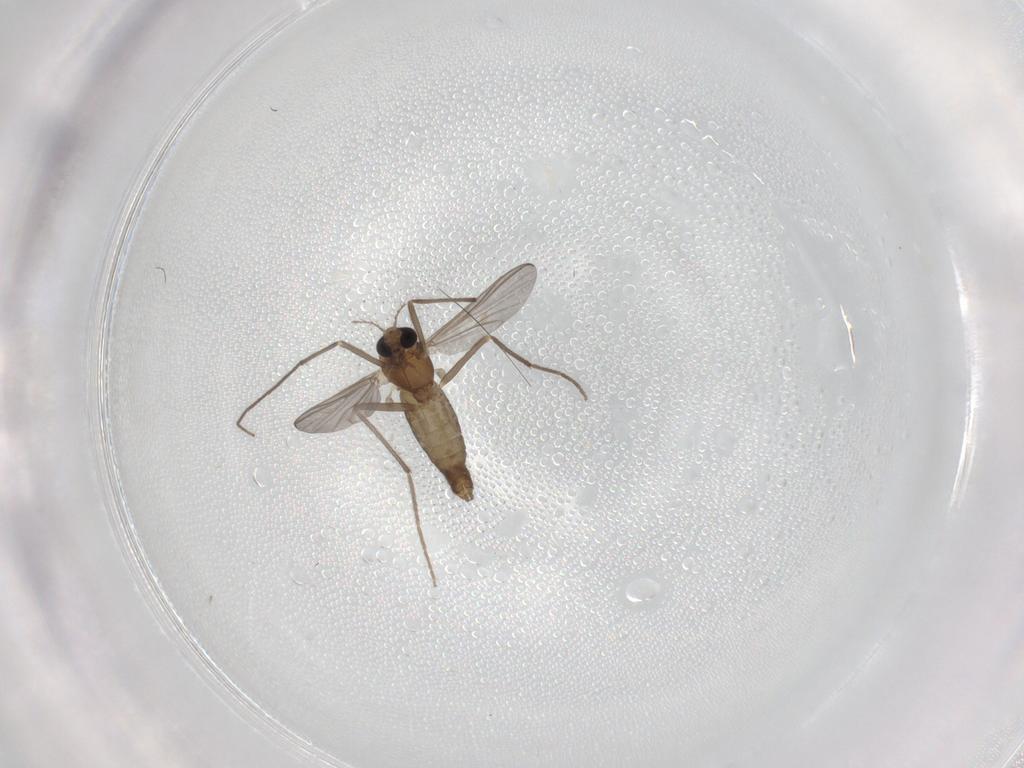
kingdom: Animalia
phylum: Arthropoda
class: Insecta
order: Diptera
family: Chironomidae
